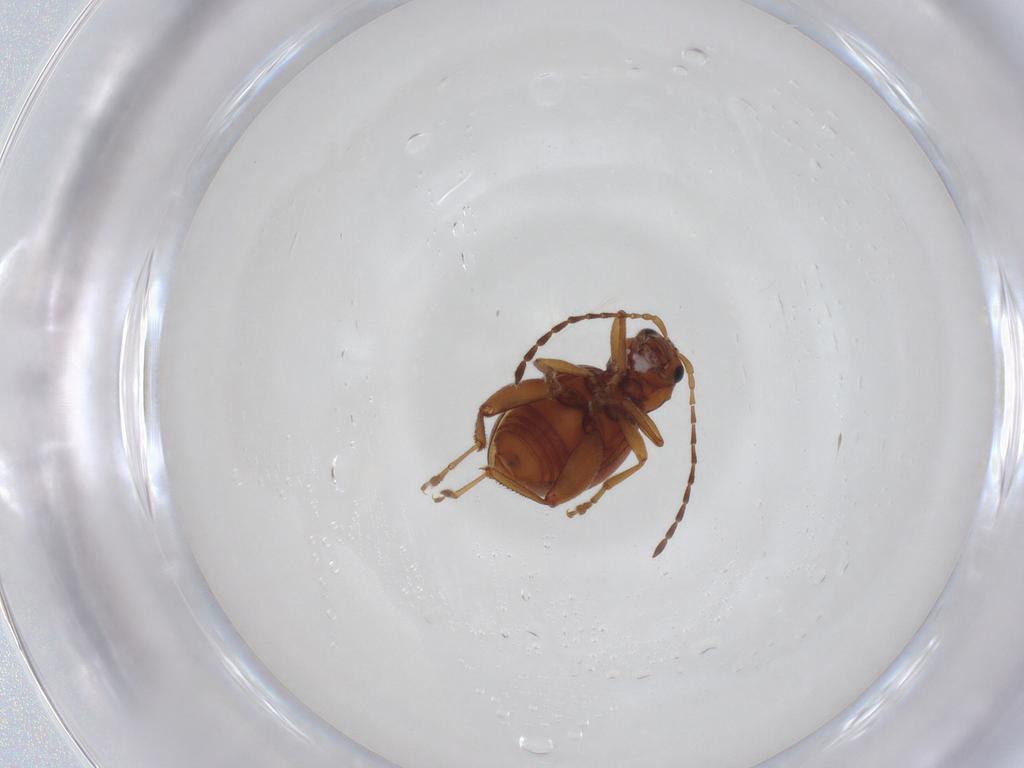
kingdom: Animalia
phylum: Arthropoda
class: Insecta
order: Coleoptera
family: Chrysomelidae
